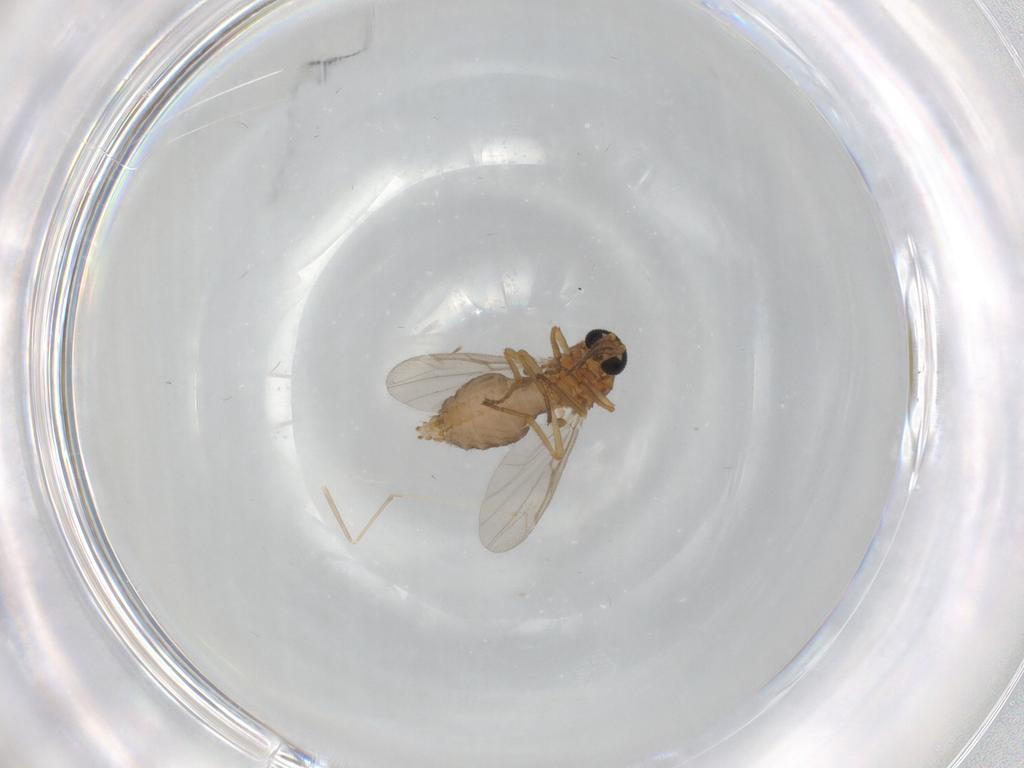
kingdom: Animalia
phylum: Arthropoda
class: Insecta
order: Diptera
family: Ceratopogonidae
